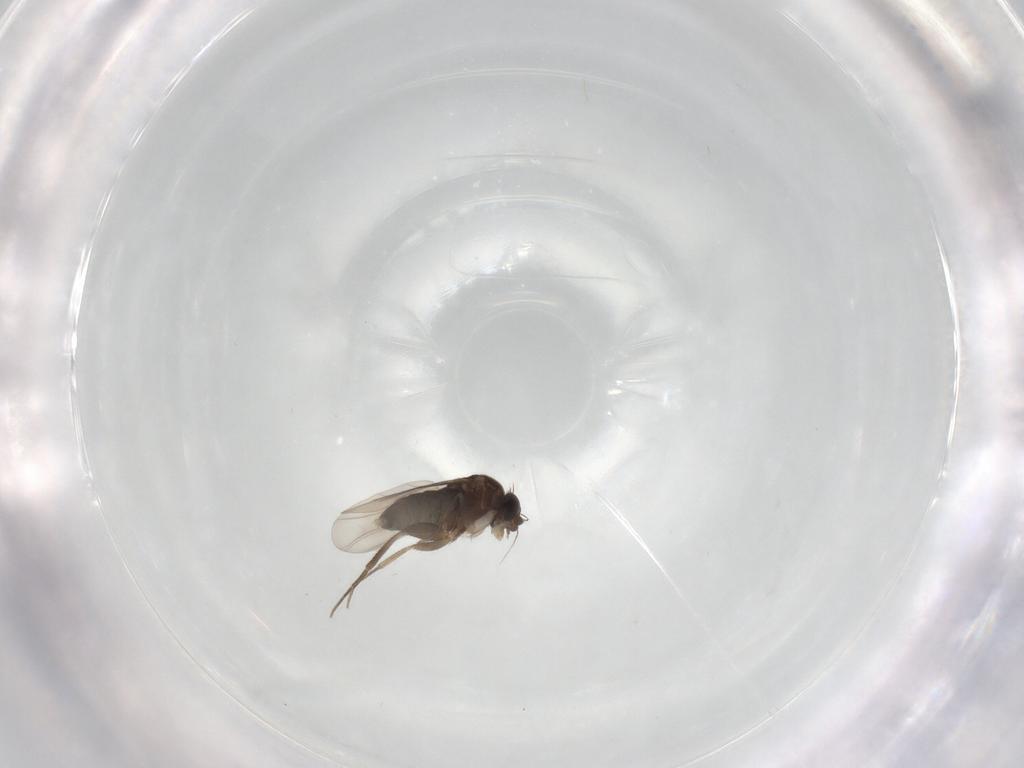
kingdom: Animalia
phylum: Arthropoda
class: Insecta
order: Diptera
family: Phoridae
